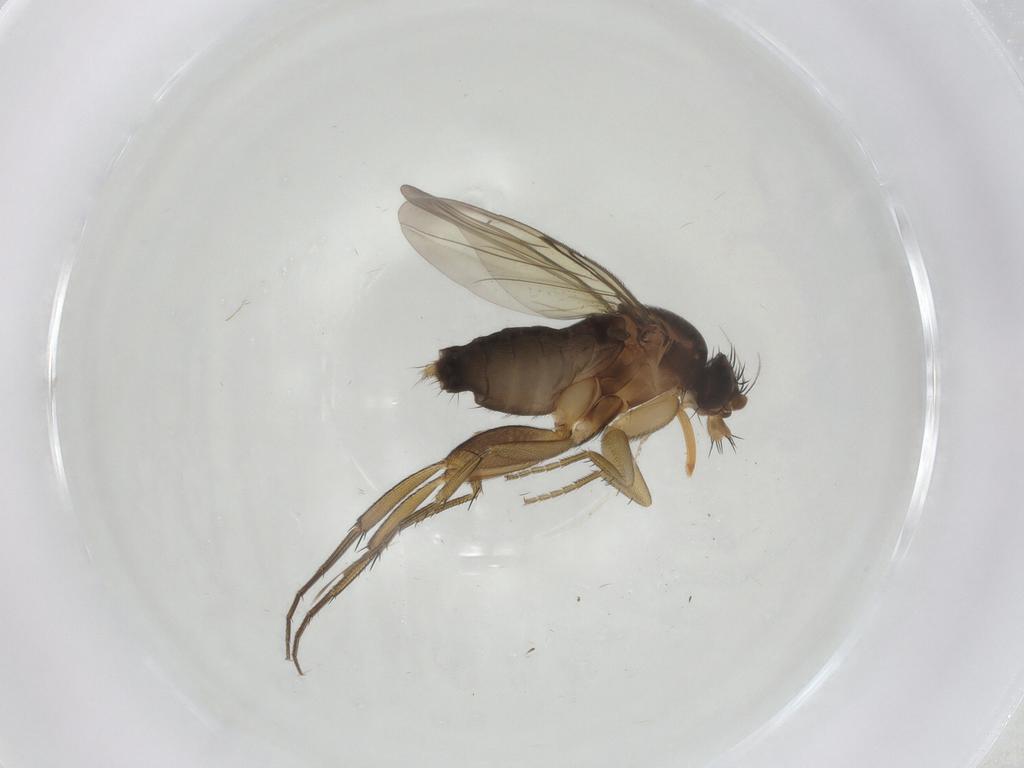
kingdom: Animalia
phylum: Arthropoda
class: Insecta
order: Diptera
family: Phoridae
